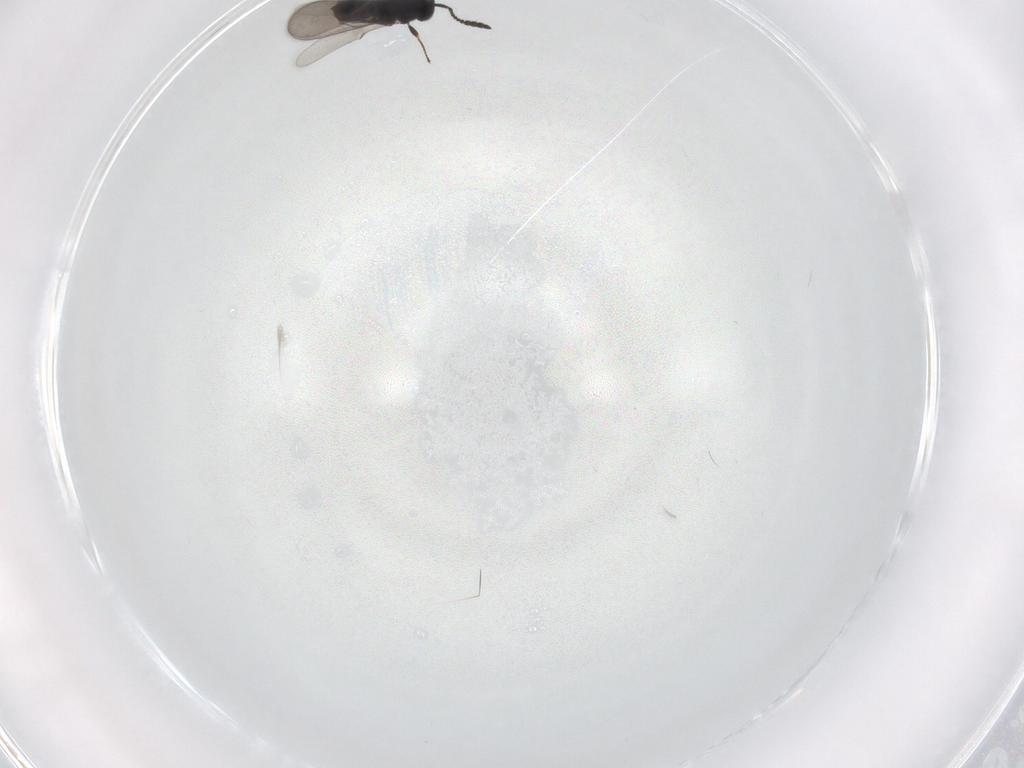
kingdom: Animalia
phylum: Arthropoda
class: Insecta
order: Hymenoptera
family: Scelionidae
